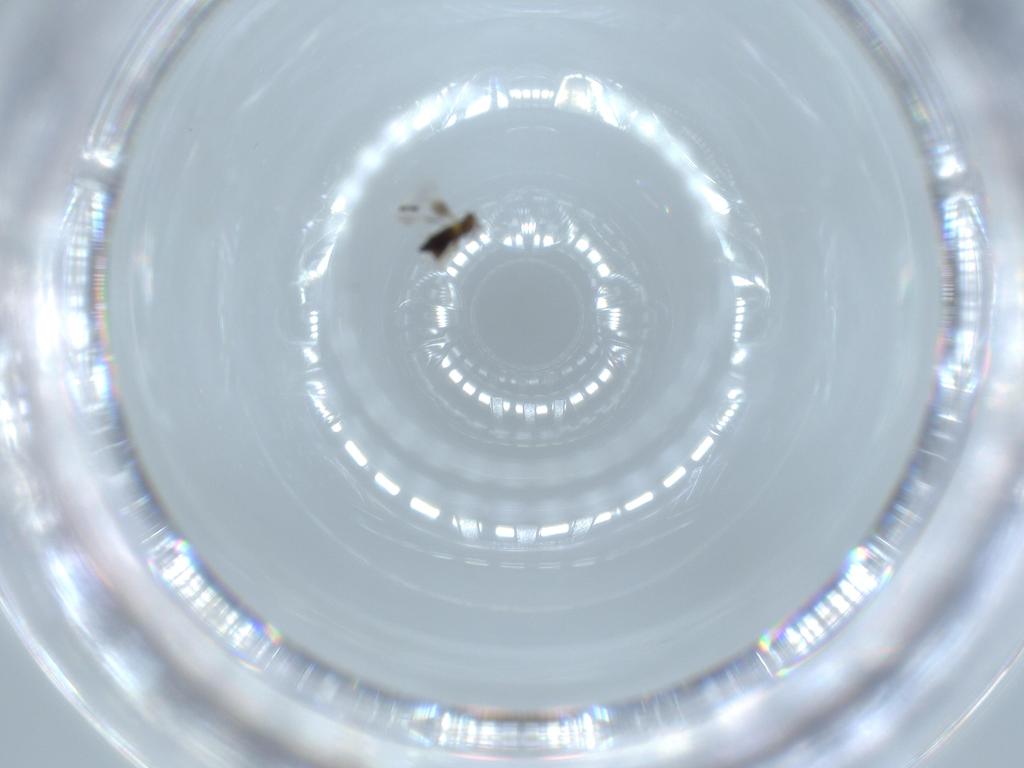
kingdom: Animalia
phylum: Arthropoda
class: Insecta
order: Hymenoptera
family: Signiphoridae
